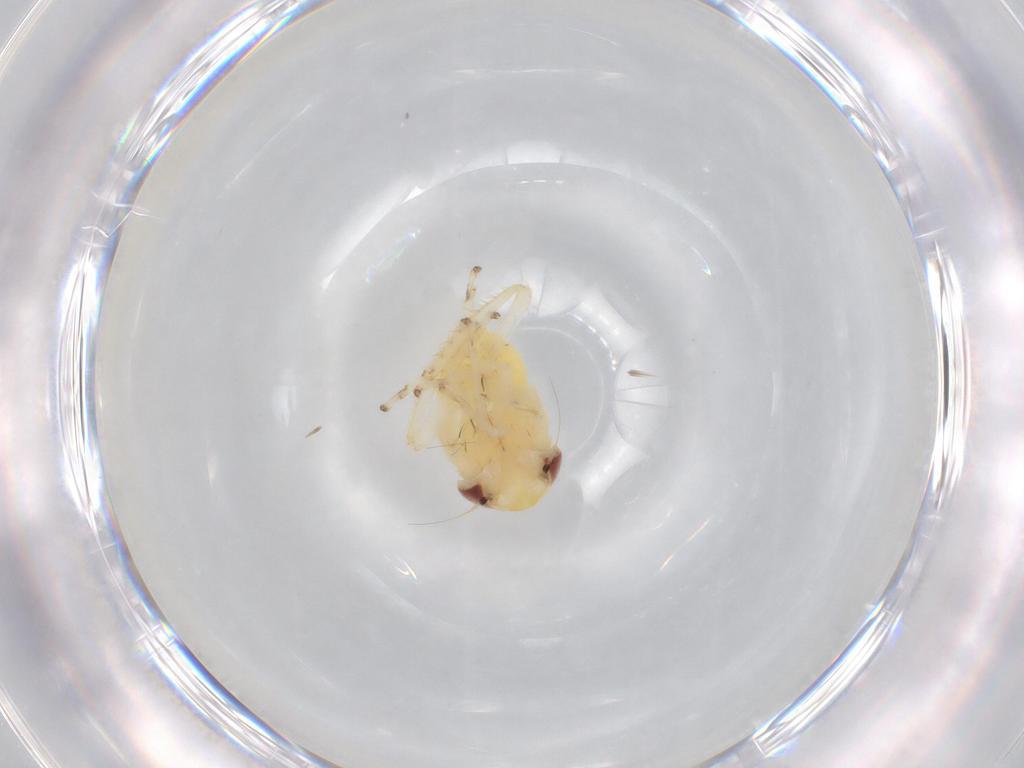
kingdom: Animalia
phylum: Arthropoda
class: Insecta
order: Hemiptera
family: Cicadellidae
